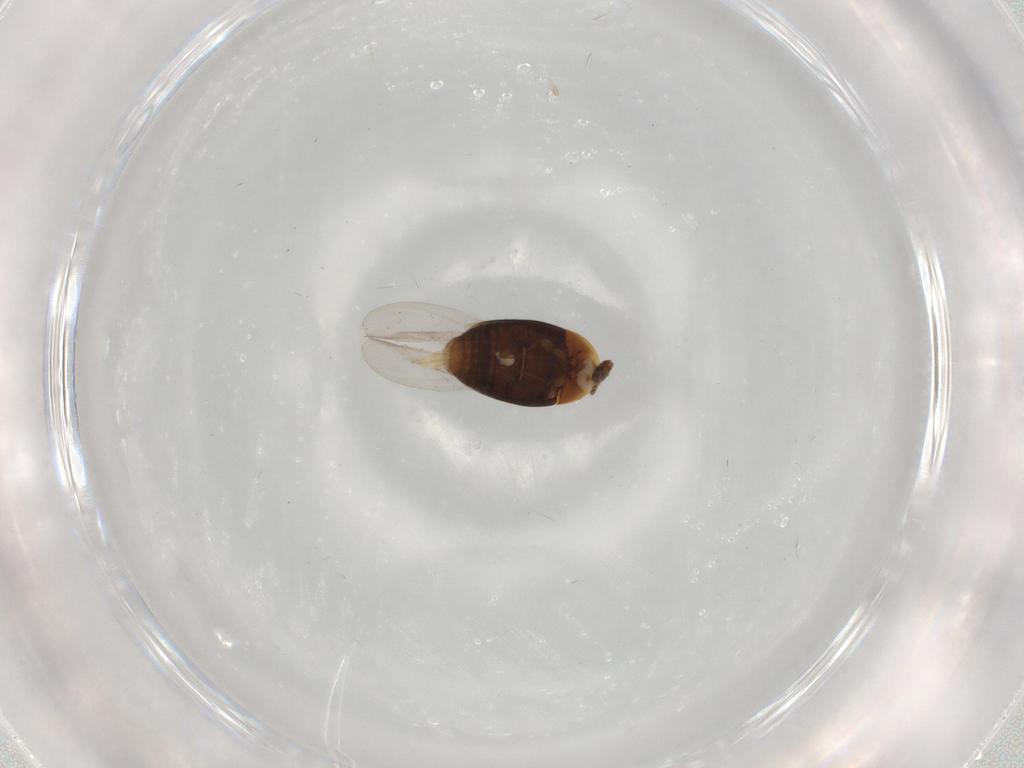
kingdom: Animalia
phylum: Arthropoda
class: Insecta
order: Coleoptera
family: Corylophidae
